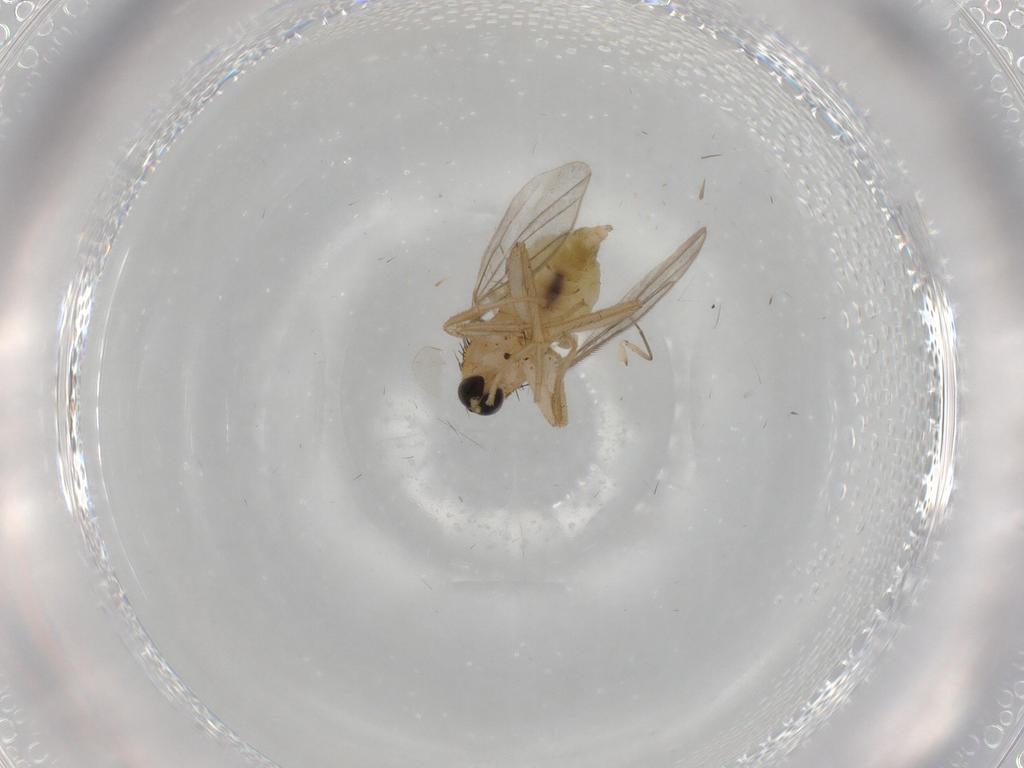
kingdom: Animalia
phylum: Arthropoda
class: Insecta
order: Diptera
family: Hybotidae
